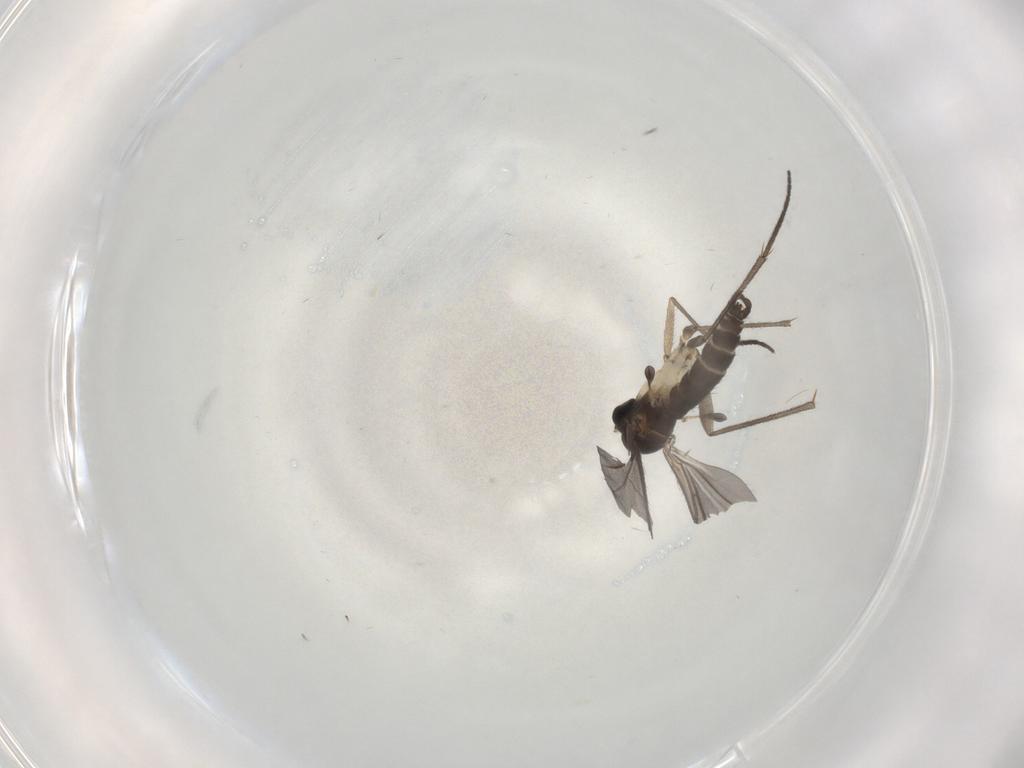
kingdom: Animalia
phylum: Arthropoda
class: Insecta
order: Diptera
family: Sciaridae
